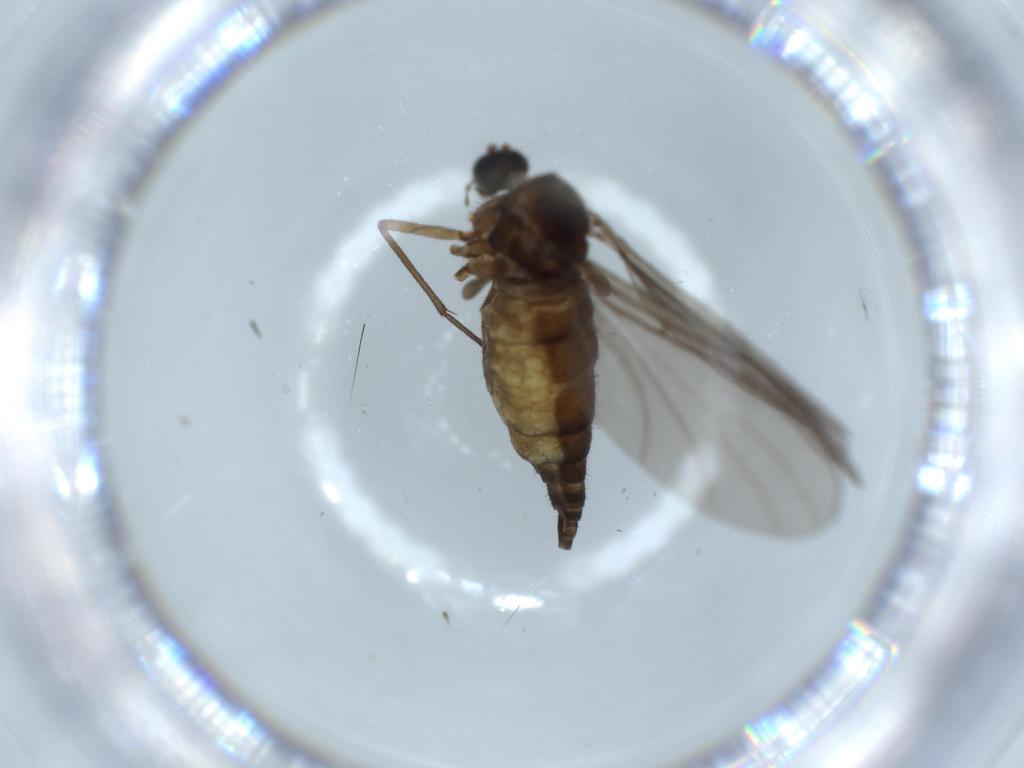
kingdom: Animalia
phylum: Arthropoda
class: Insecta
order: Diptera
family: Sciaridae
